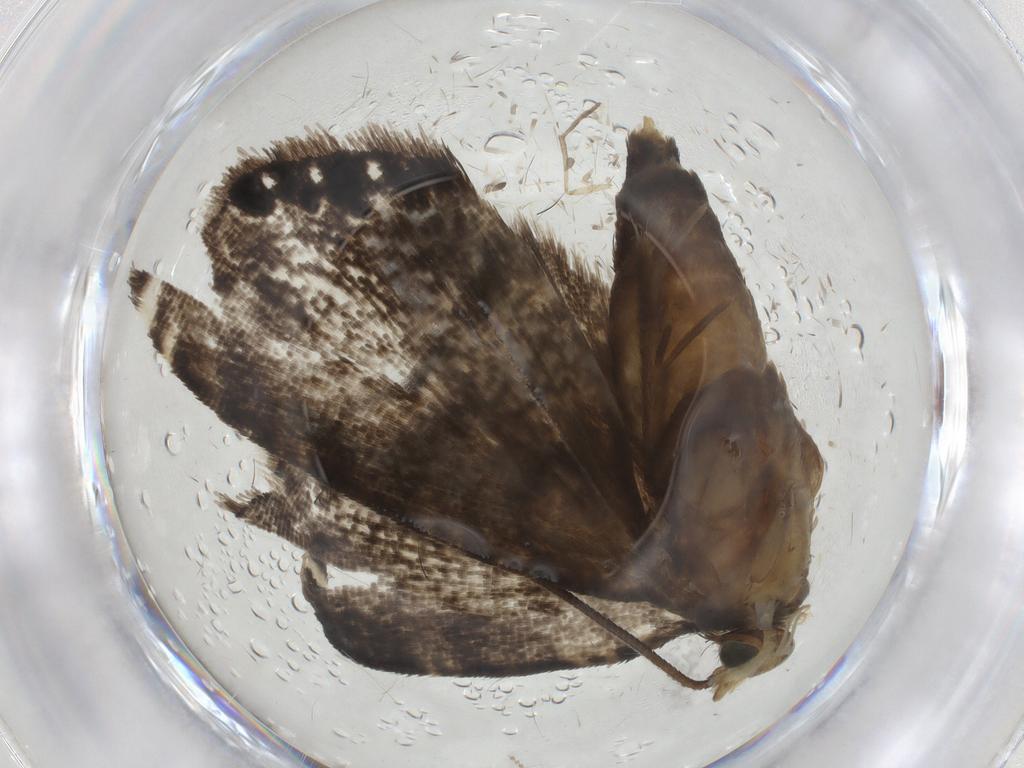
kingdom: Animalia
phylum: Arthropoda
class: Insecta
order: Lepidoptera
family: Tortricidae
